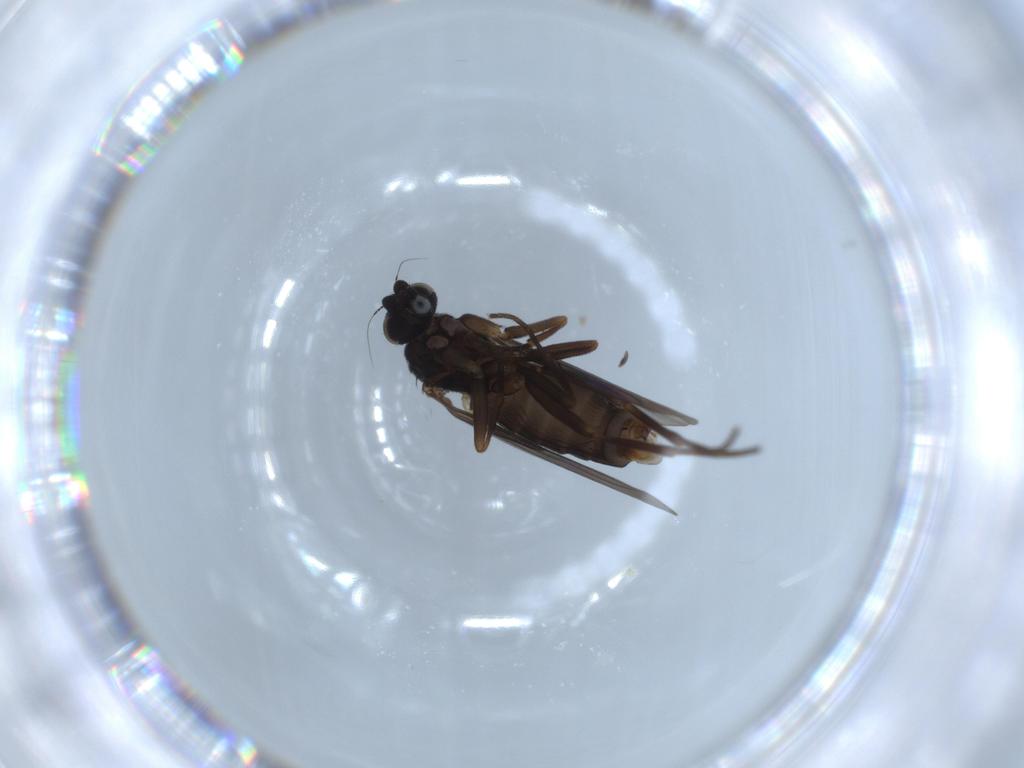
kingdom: Animalia
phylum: Arthropoda
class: Insecta
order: Diptera
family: Phoridae
